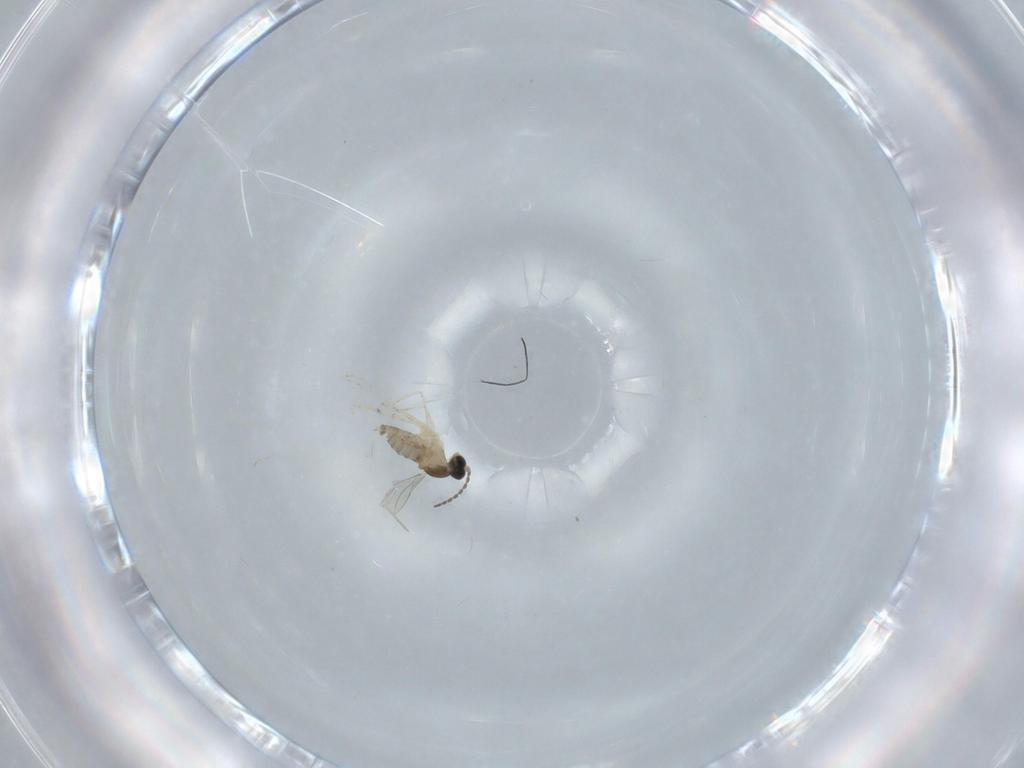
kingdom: Animalia
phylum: Arthropoda
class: Insecta
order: Diptera
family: Cecidomyiidae
